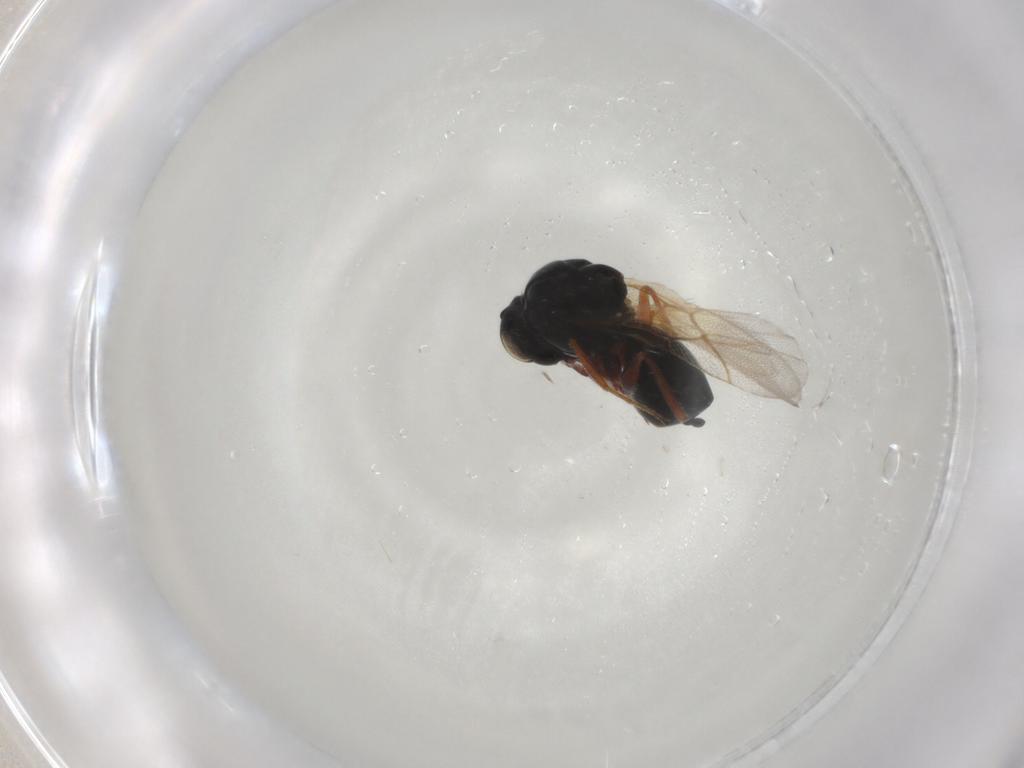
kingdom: Animalia
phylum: Arthropoda
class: Insecta
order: Hymenoptera
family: Figitidae
